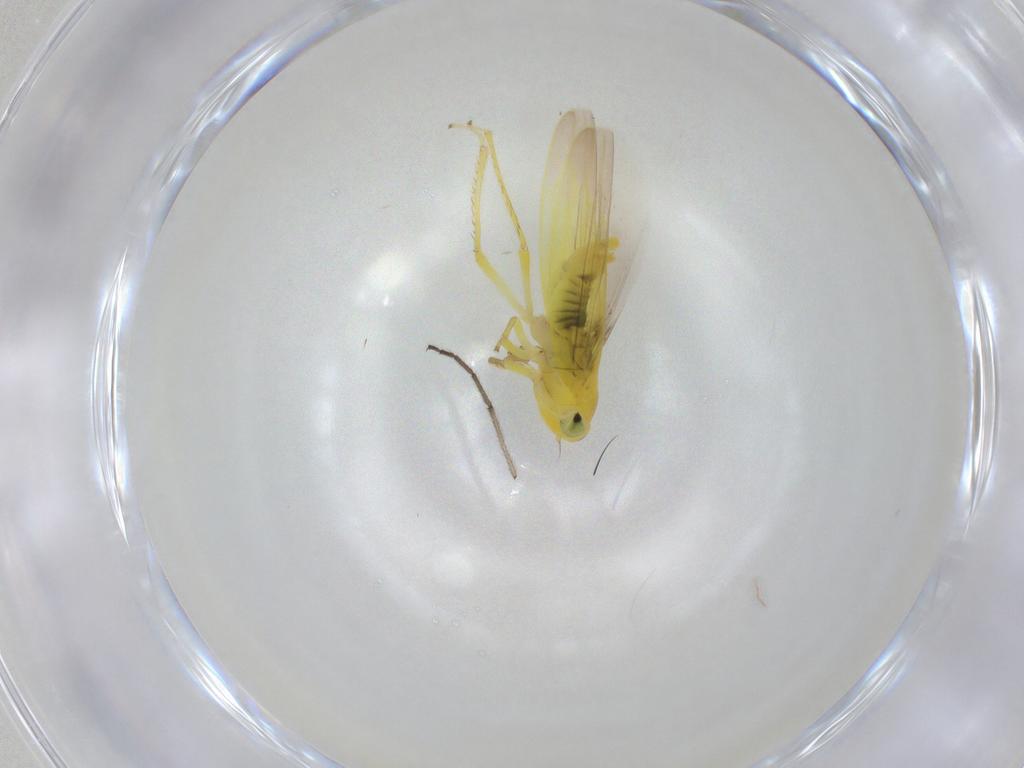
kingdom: Animalia
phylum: Arthropoda
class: Insecta
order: Hemiptera
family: Cicadellidae
